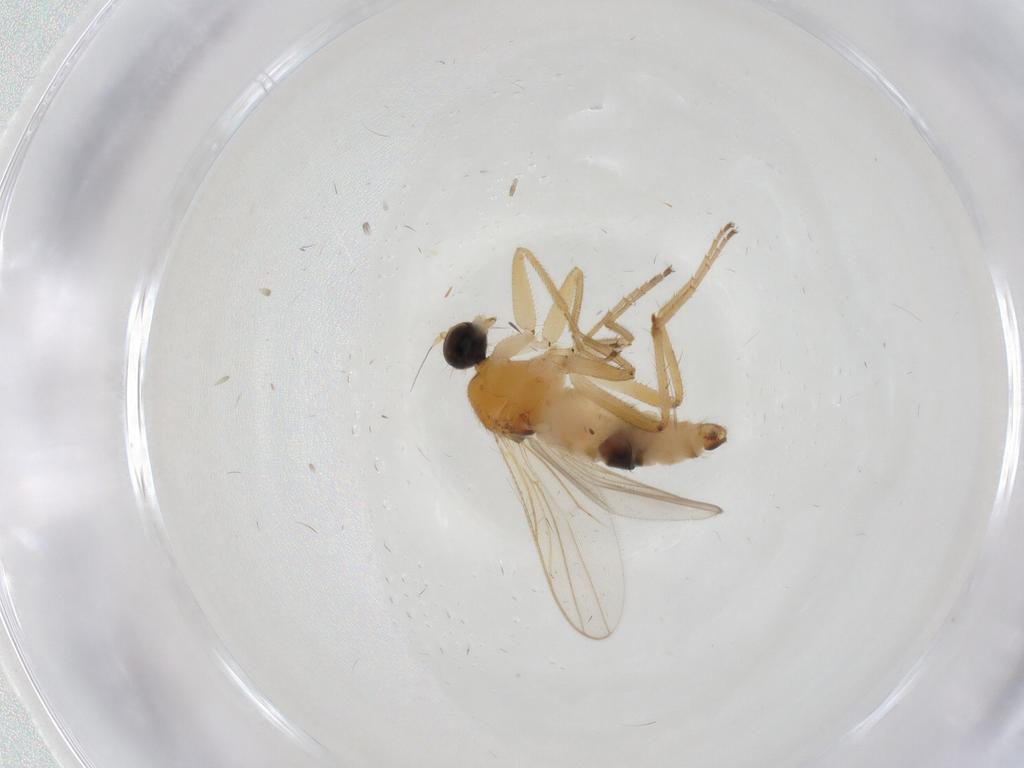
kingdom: Animalia
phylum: Arthropoda
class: Insecta
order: Diptera
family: Hybotidae
